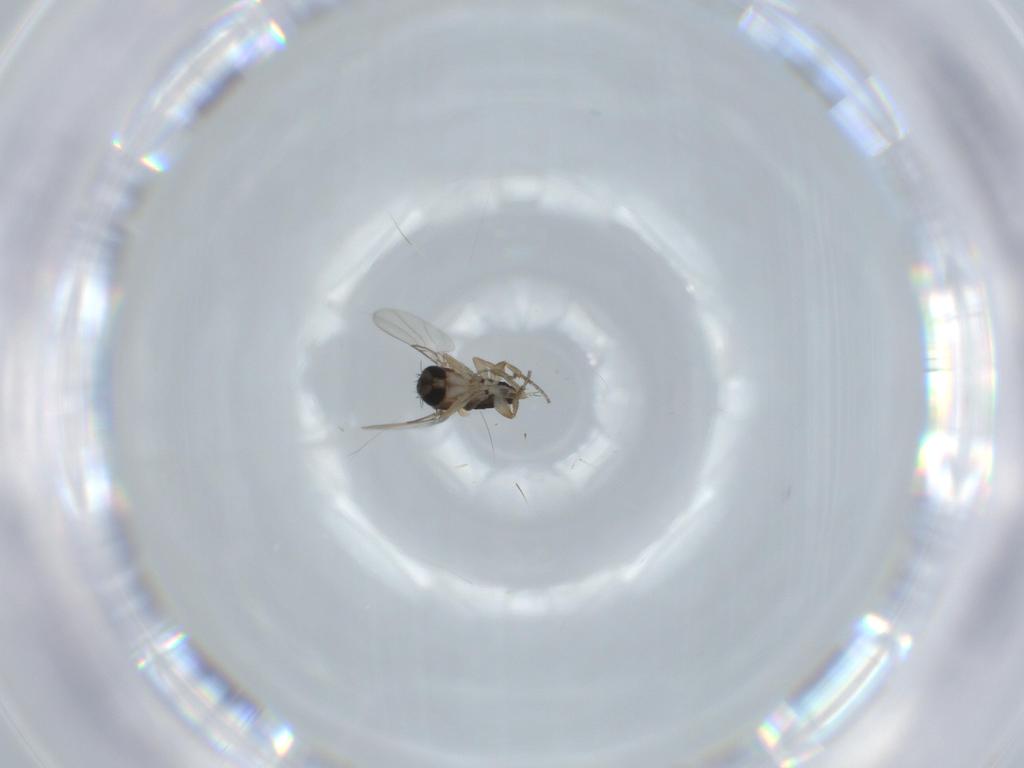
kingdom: Animalia
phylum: Arthropoda
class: Insecta
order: Diptera
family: Phoridae
